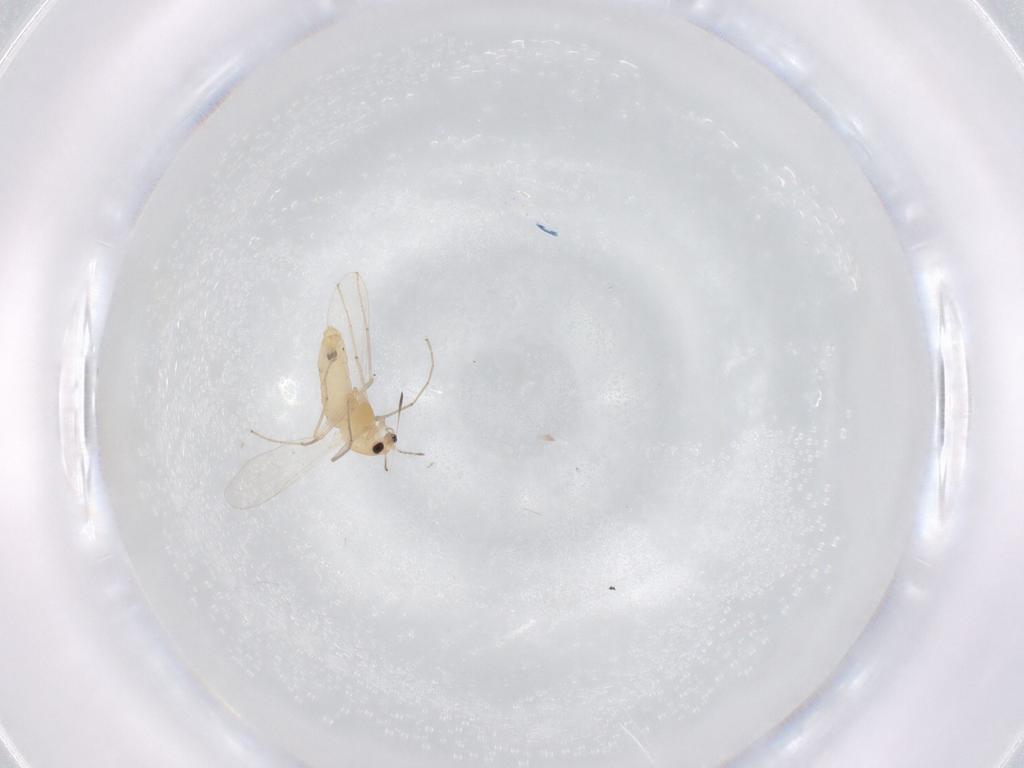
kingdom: Animalia
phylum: Arthropoda
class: Insecta
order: Diptera
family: Chironomidae
